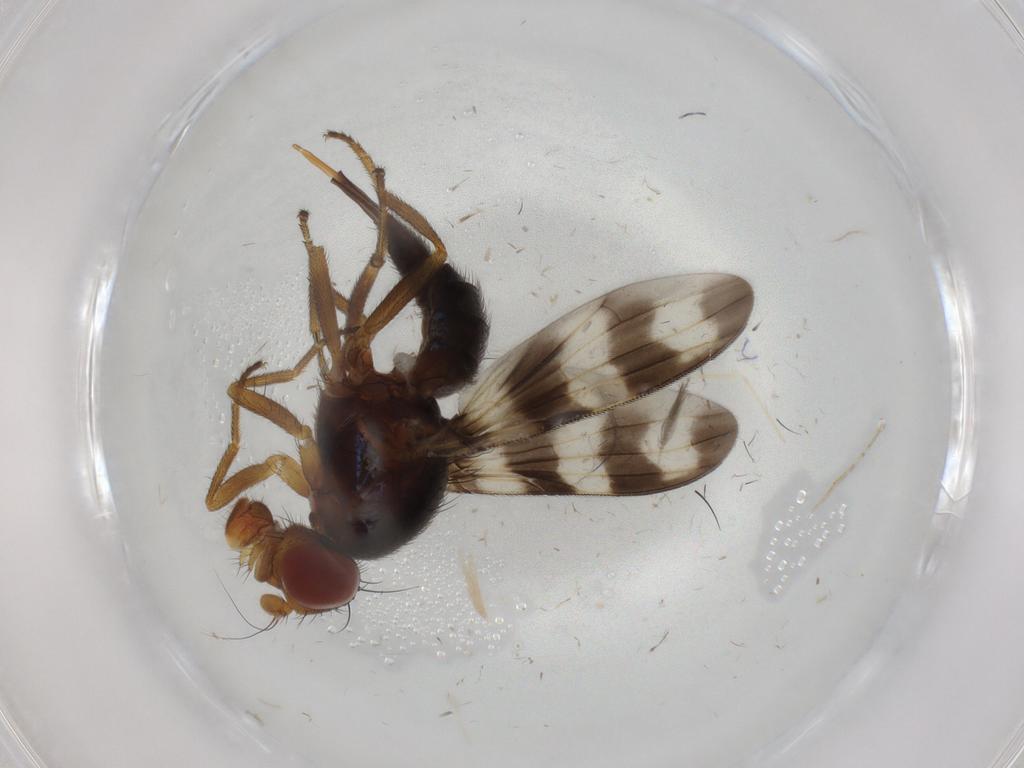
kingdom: Animalia
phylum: Arthropoda
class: Insecta
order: Diptera
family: Ulidiidae
